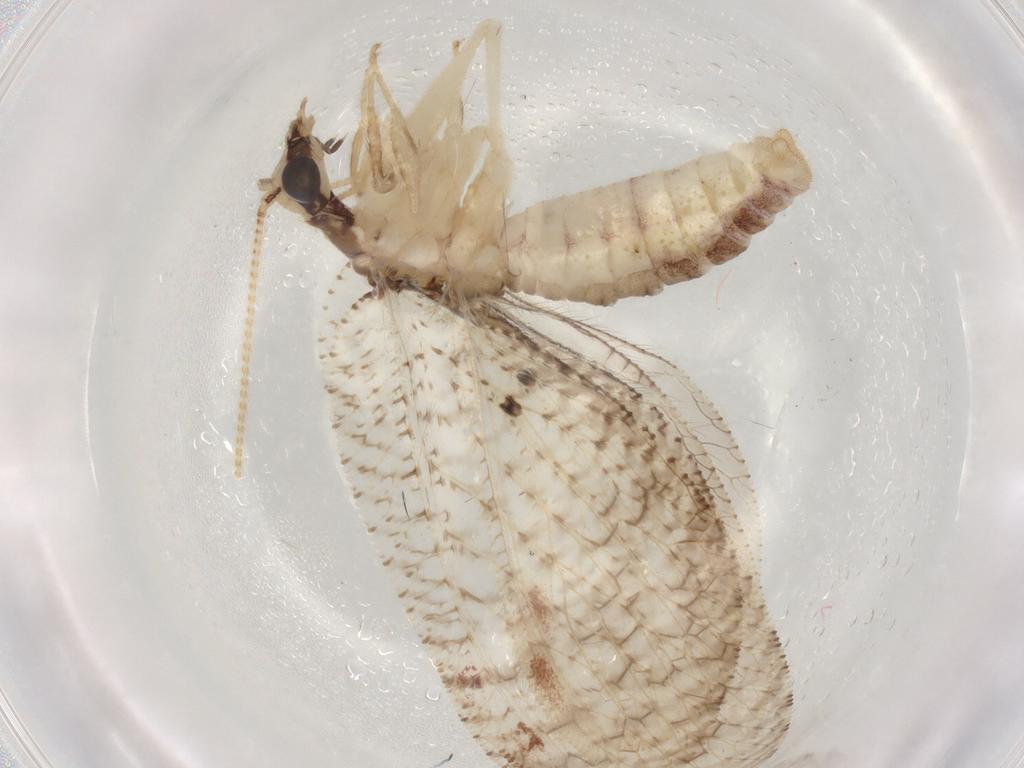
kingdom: Animalia
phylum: Arthropoda
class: Insecta
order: Neuroptera
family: Hemerobiidae
